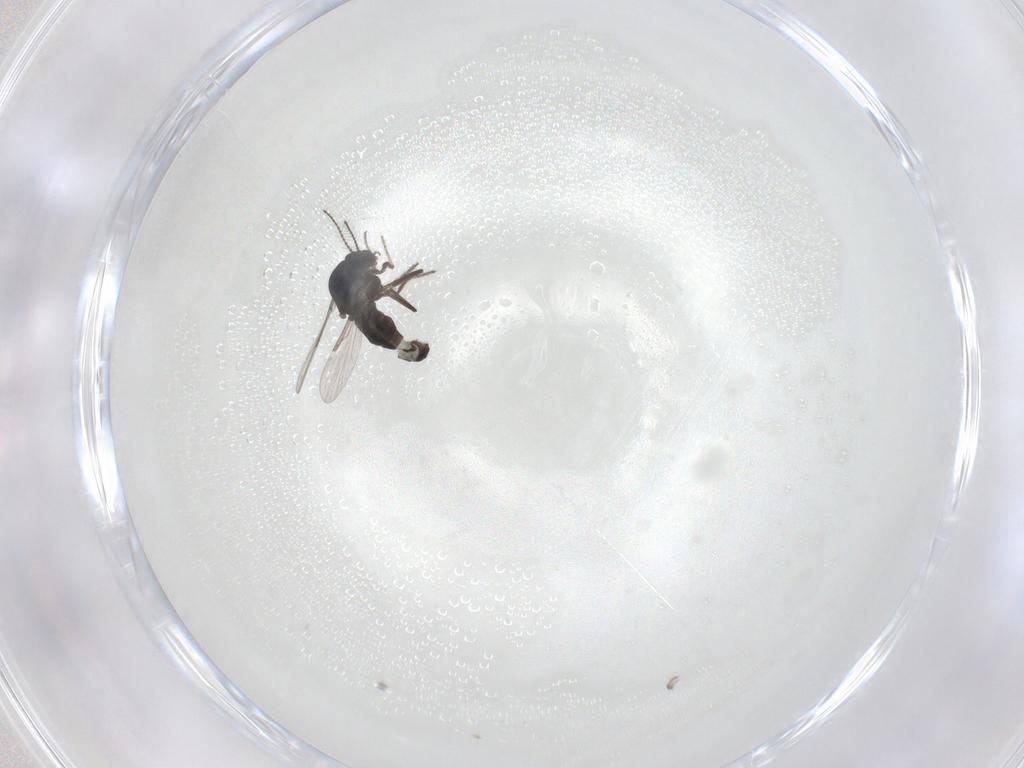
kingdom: Animalia
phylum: Arthropoda
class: Insecta
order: Diptera
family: Ceratopogonidae
